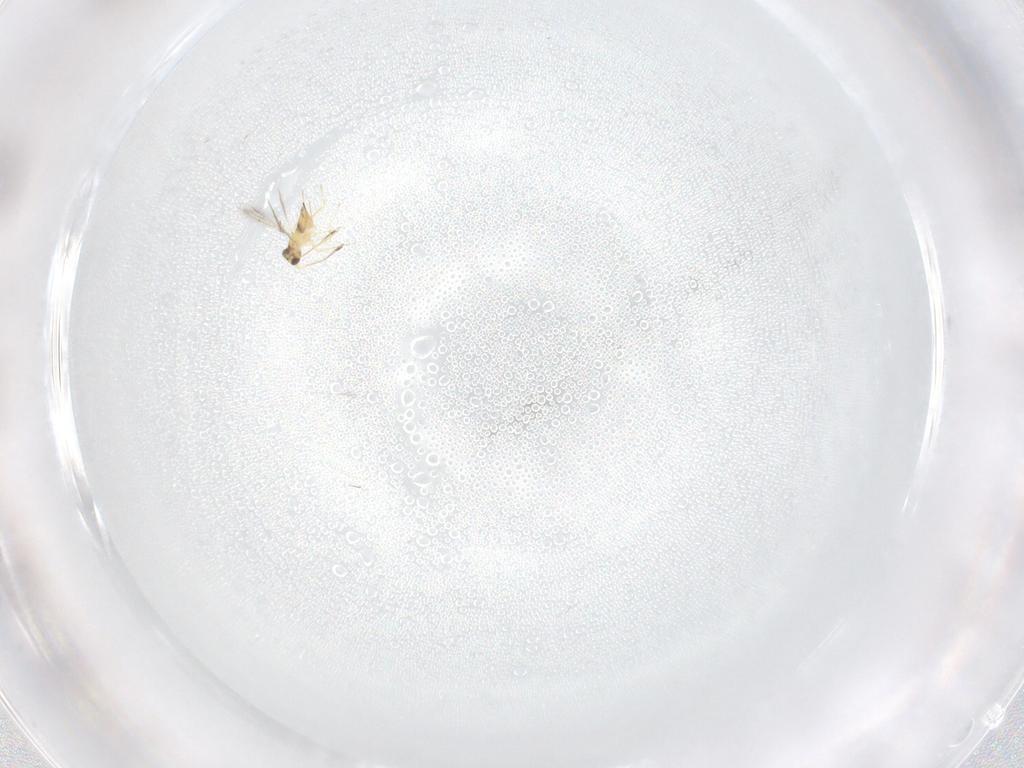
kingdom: Animalia
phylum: Arthropoda
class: Insecta
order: Hymenoptera
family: Mymaridae
